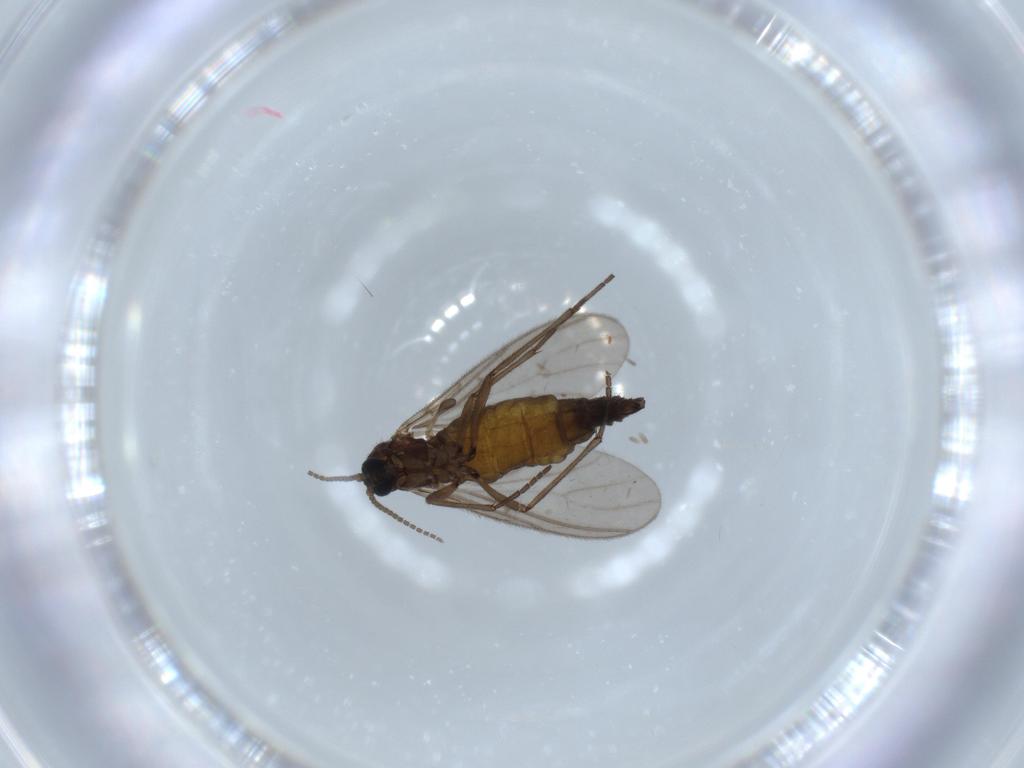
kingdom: Animalia
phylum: Arthropoda
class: Insecta
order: Diptera
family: Sciaridae
